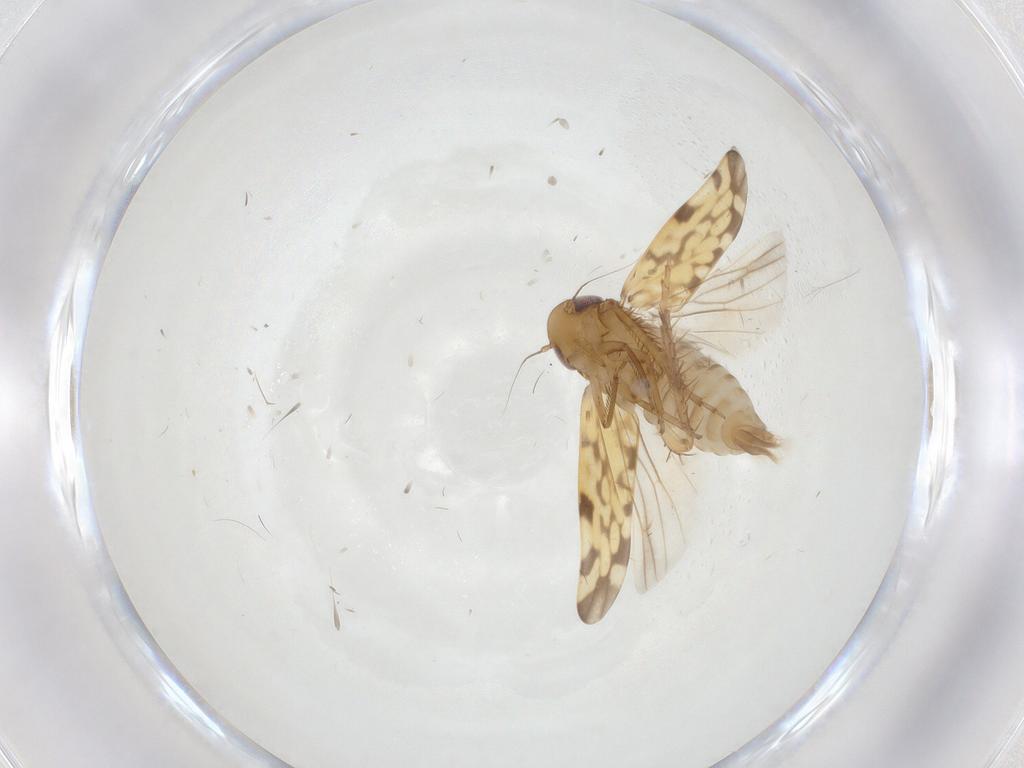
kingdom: Animalia
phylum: Arthropoda
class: Insecta
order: Hemiptera
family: Cicadellidae
